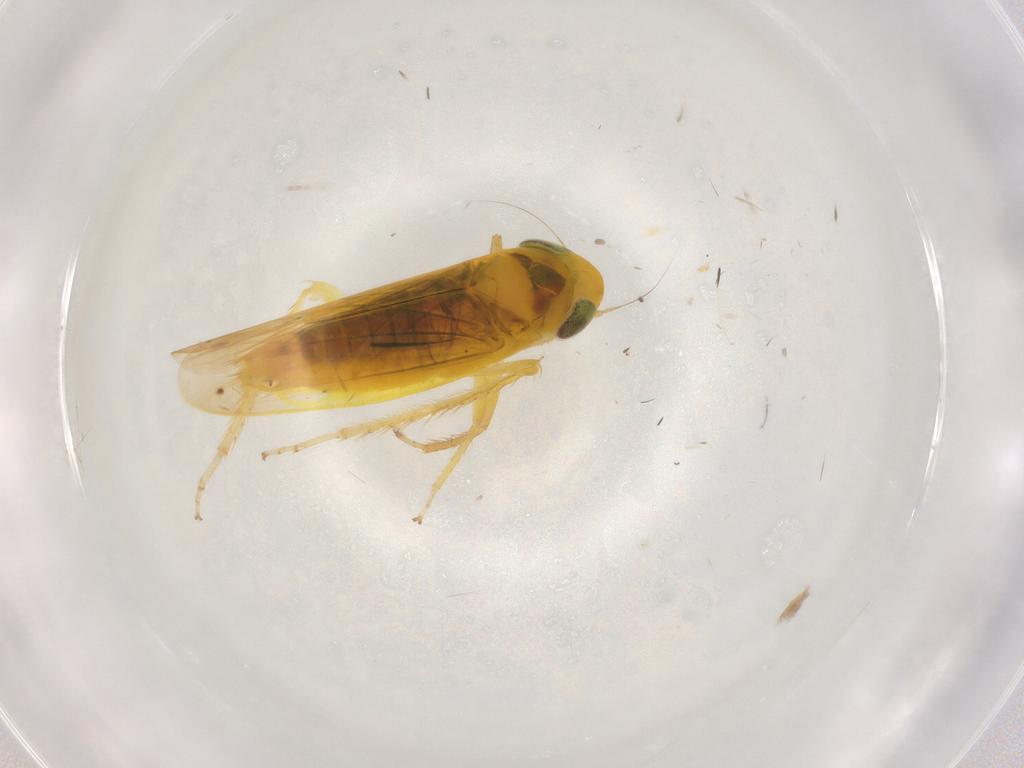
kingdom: Animalia
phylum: Arthropoda
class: Insecta
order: Hemiptera
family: Cicadellidae
